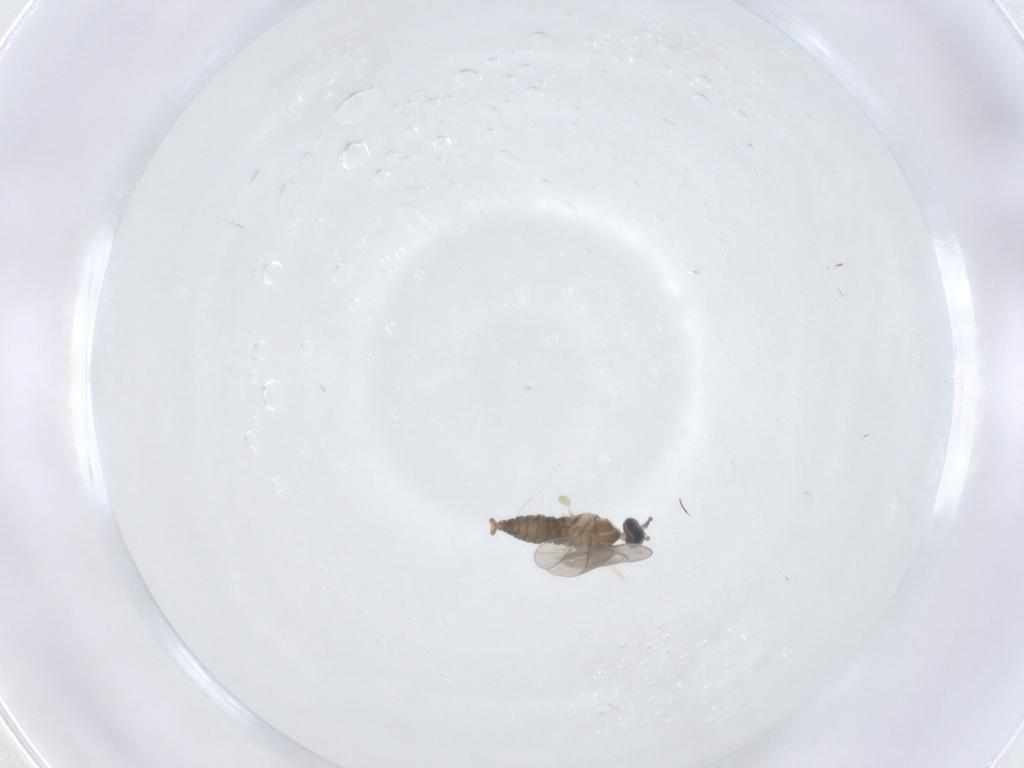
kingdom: Animalia
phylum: Arthropoda
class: Insecta
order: Diptera
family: Cecidomyiidae
